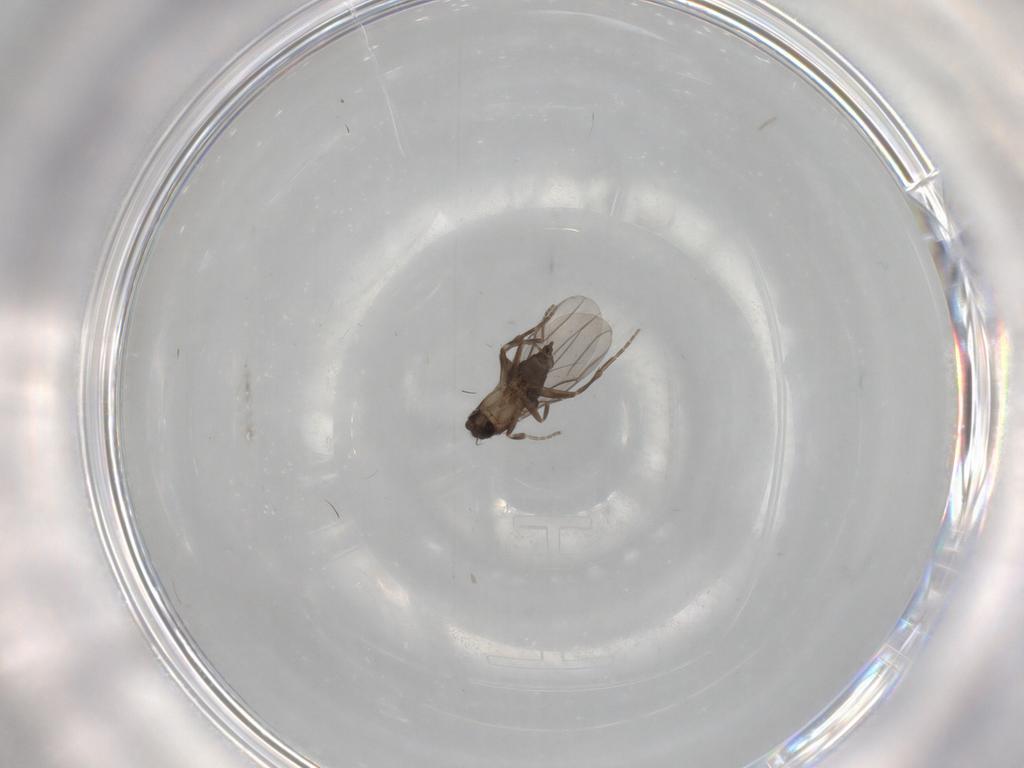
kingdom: Animalia
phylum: Arthropoda
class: Insecta
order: Diptera
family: Phoridae
